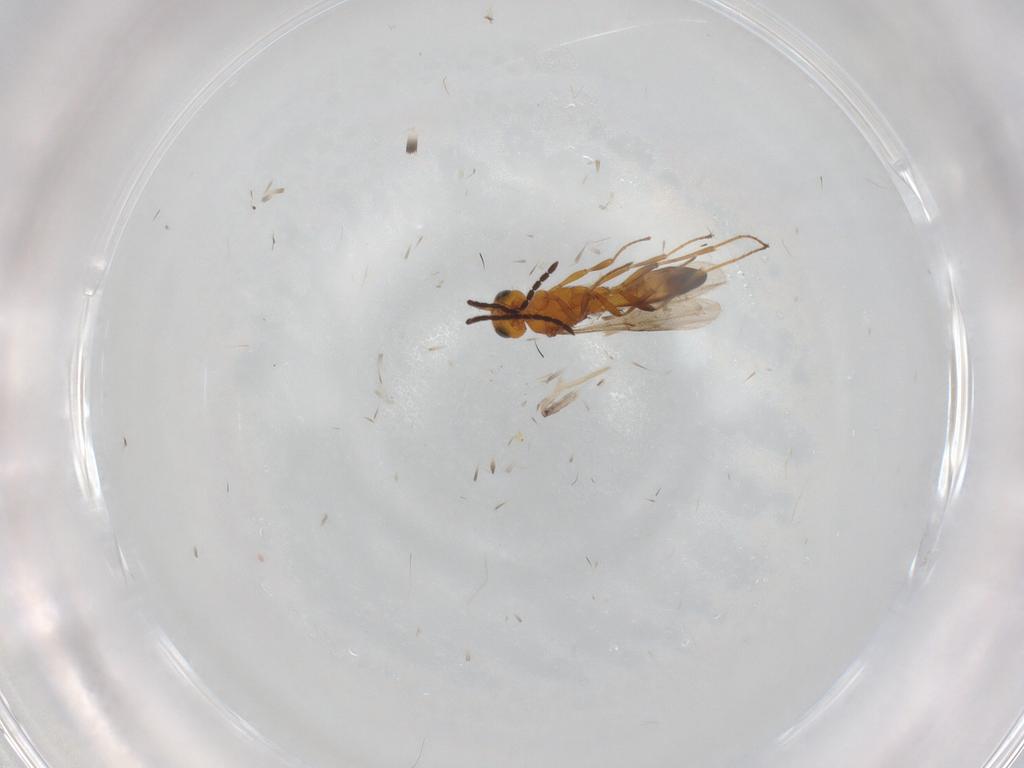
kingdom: Animalia
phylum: Arthropoda
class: Insecta
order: Hymenoptera
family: Scelionidae
